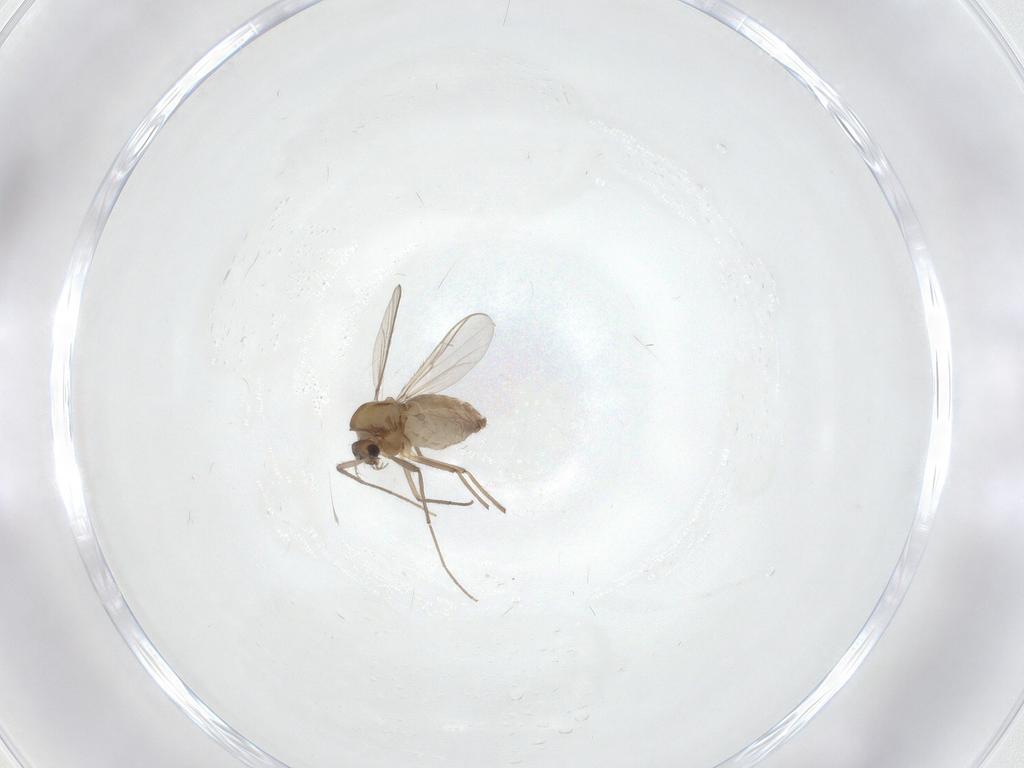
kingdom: Animalia
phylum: Arthropoda
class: Insecta
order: Diptera
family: Chironomidae
